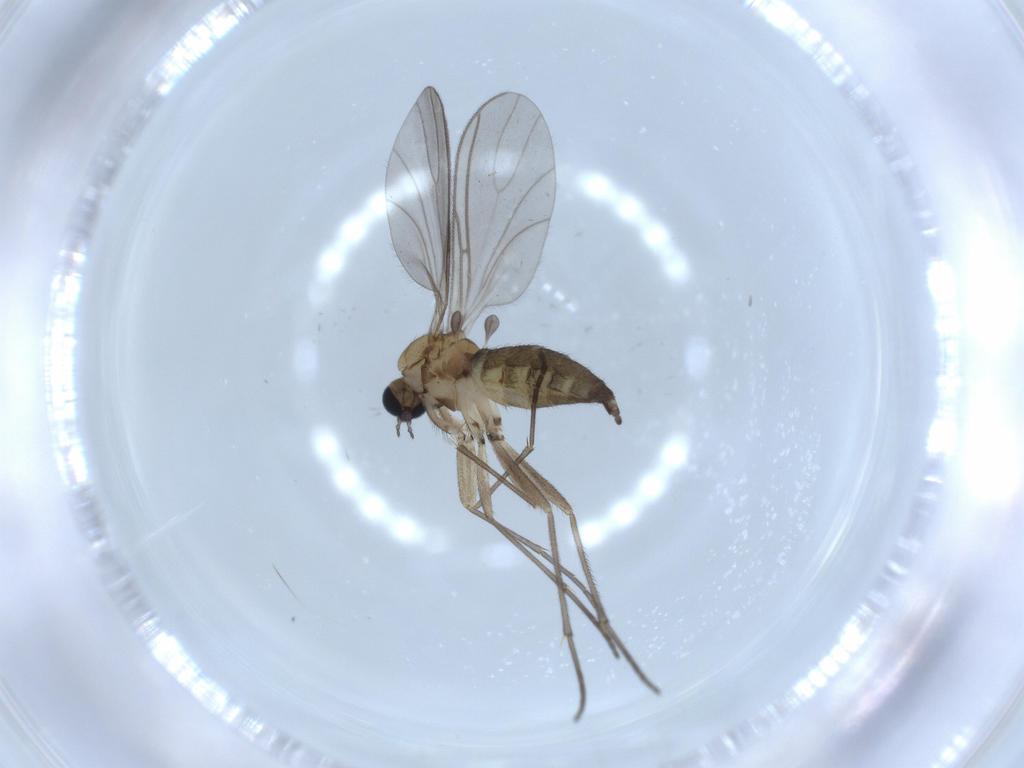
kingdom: Animalia
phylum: Arthropoda
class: Insecta
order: Diptera
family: Sciaridae
